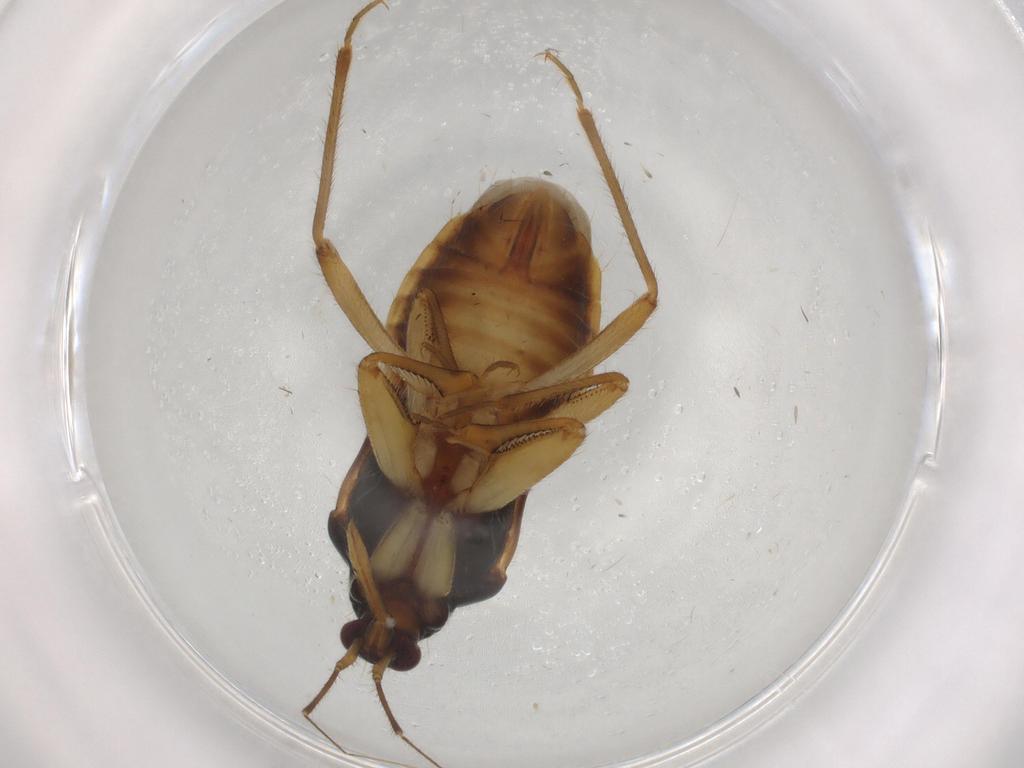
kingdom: Animalia
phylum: Arthropoda
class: Insecta
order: Hemiptera
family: Nabidae
